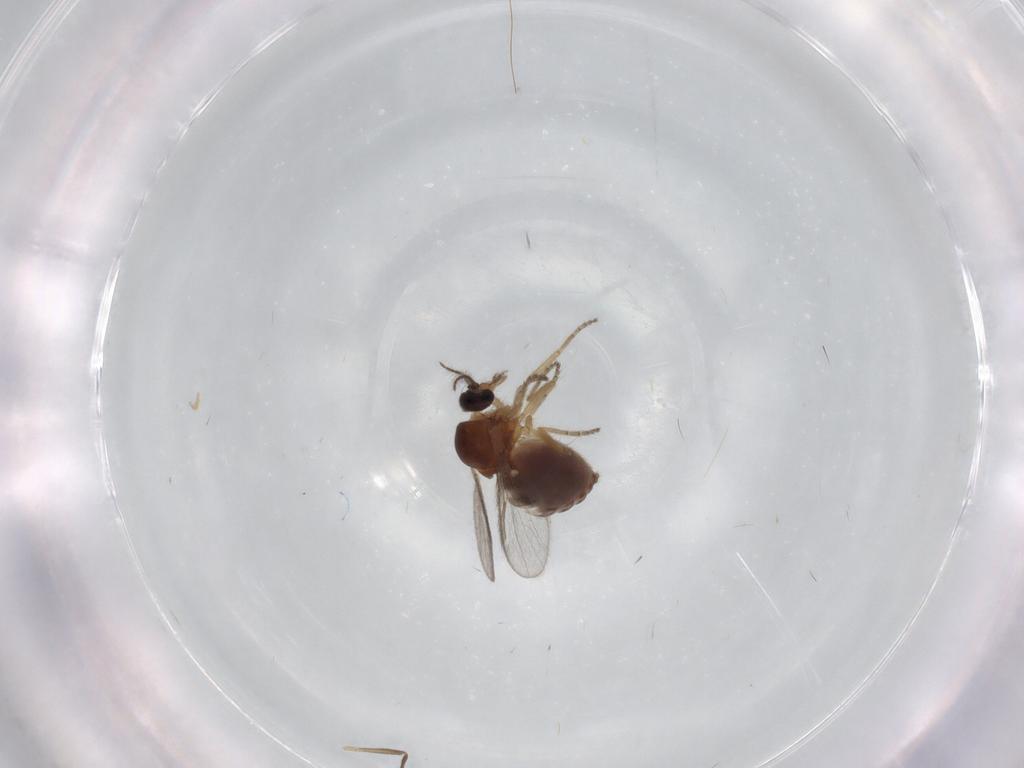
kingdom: Animalia
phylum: Arthropoda
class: Insecta
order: Diptera
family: Ceratopogonidae
